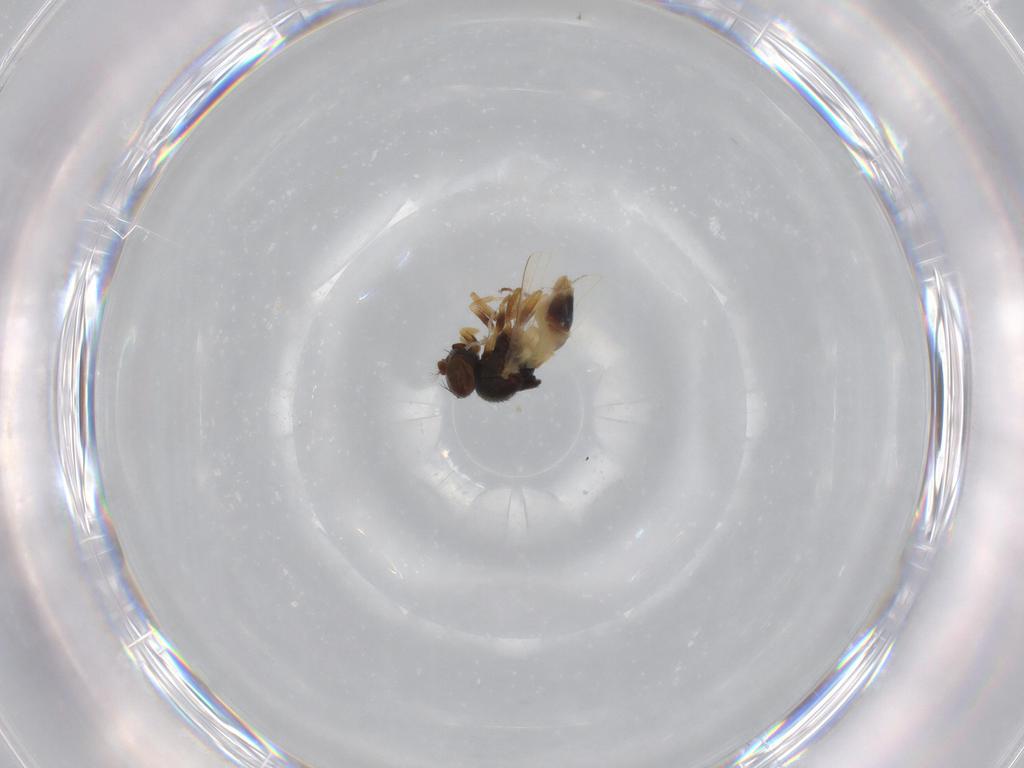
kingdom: Animalia
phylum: Arthropoda
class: Insecta
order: Diptera
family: Ephydridae
